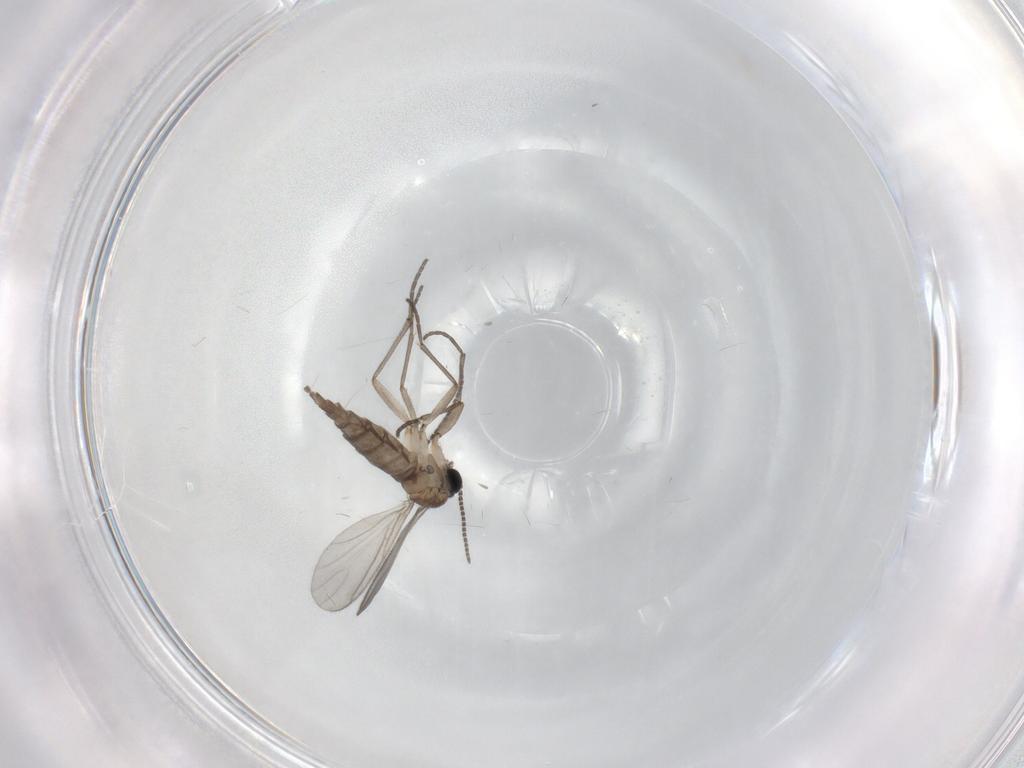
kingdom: Animalia
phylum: Arthropoda
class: Insecta
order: Diptera
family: Sciaridae
